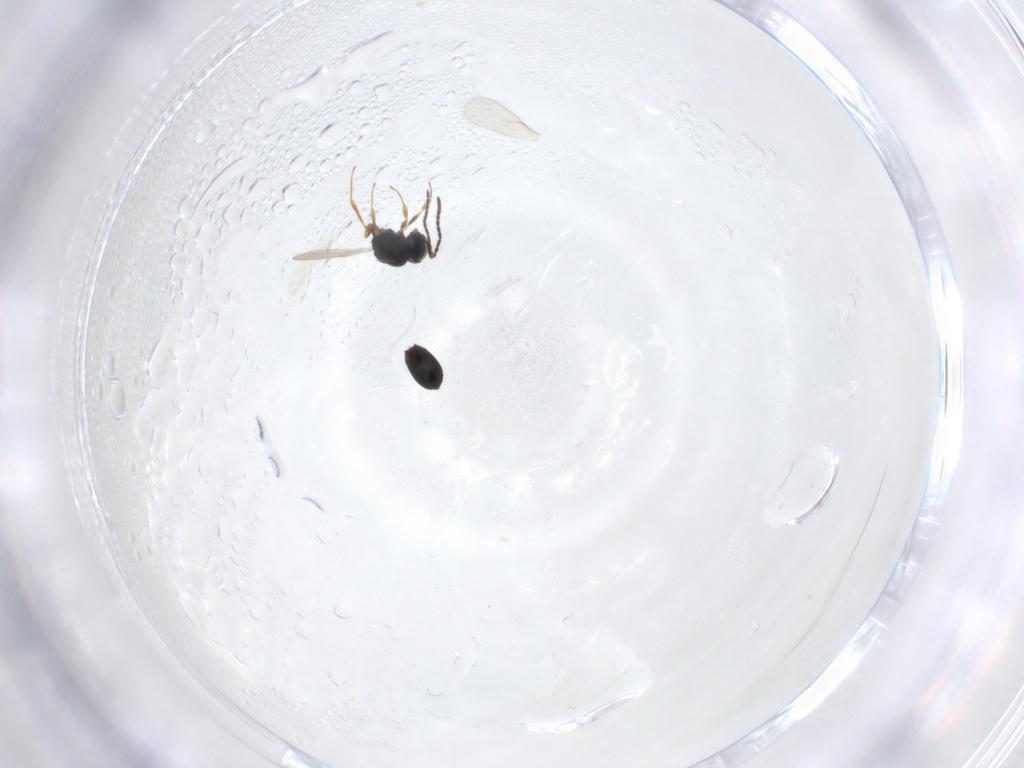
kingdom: Animalia
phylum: Arthropoda
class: Insecta
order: Hymenoptera
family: Scelionidae
